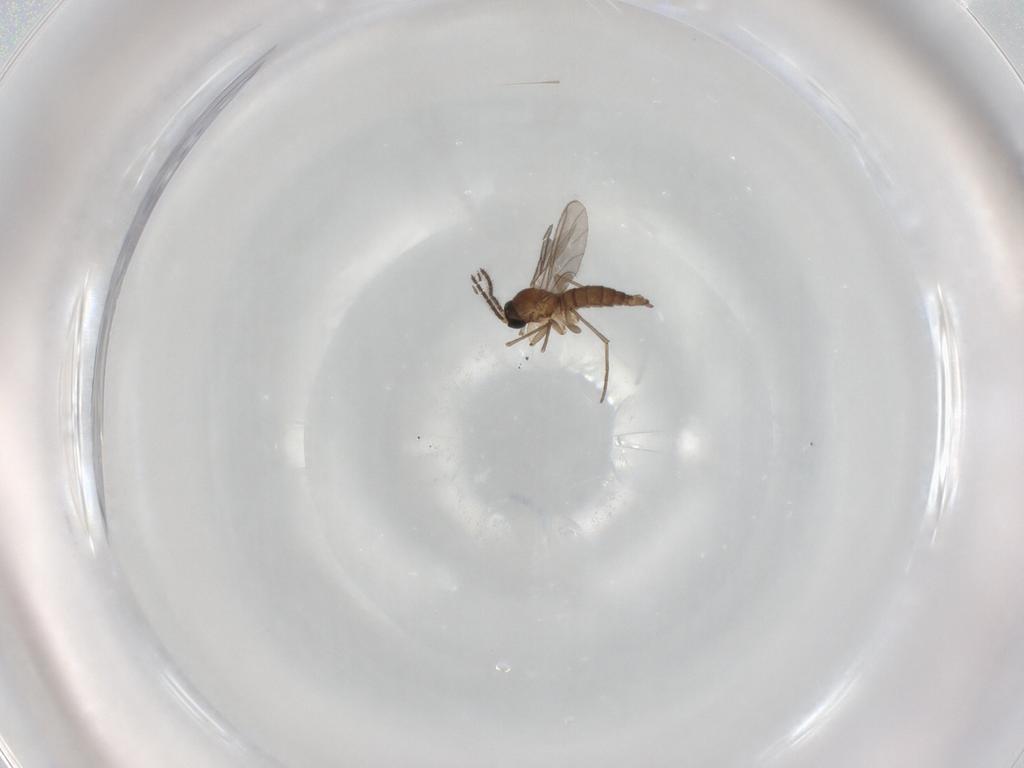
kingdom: Animalia
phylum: Arthropoda
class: Insecta
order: Diptera
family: Sciaridae
